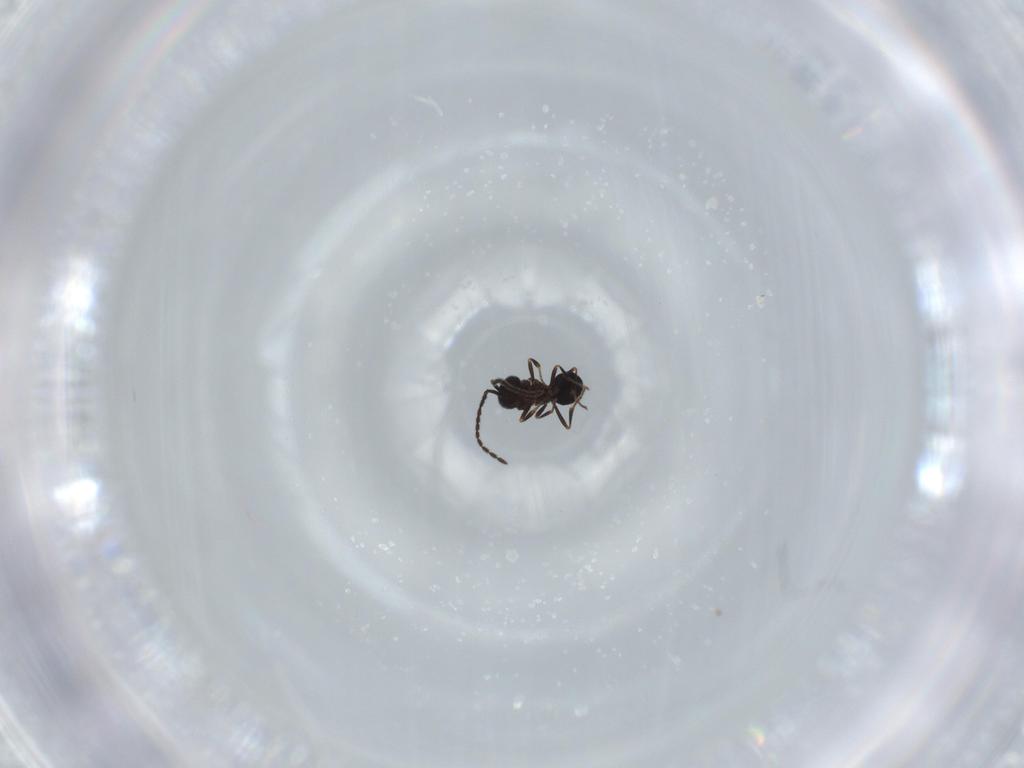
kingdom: Animalia
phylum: Arthropoda
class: Insecta
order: Hymenoptera
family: Scelionidae
